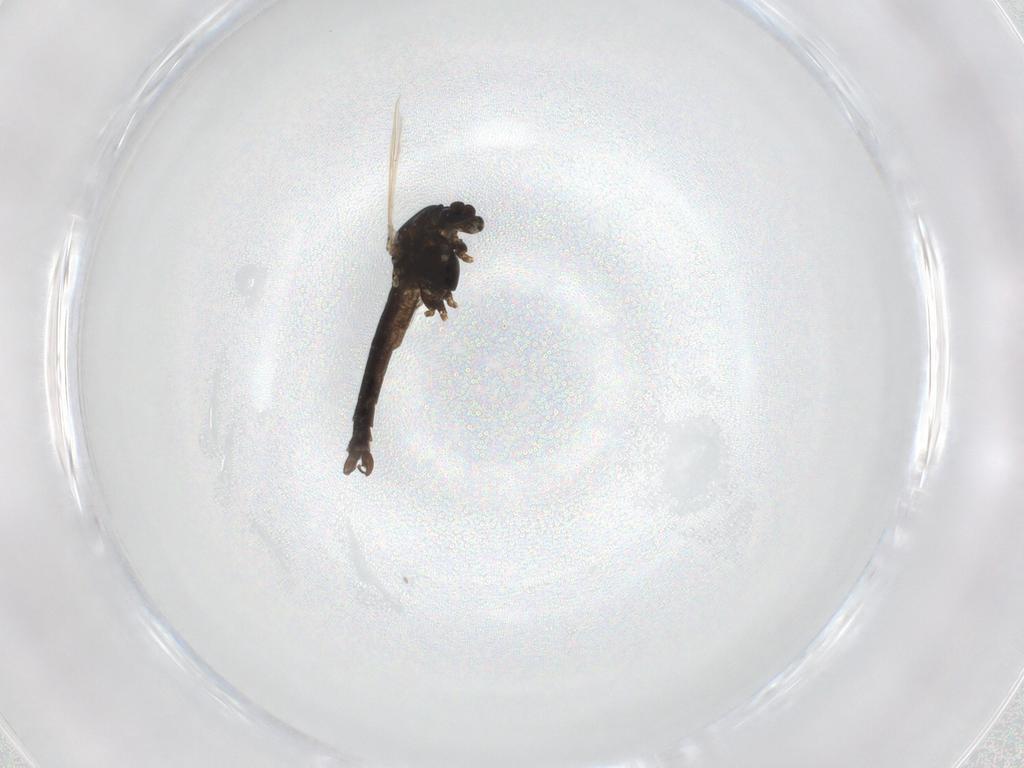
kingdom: Animalia
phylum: Arthropoda
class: Insecta
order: Diptera
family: Chironomidae
